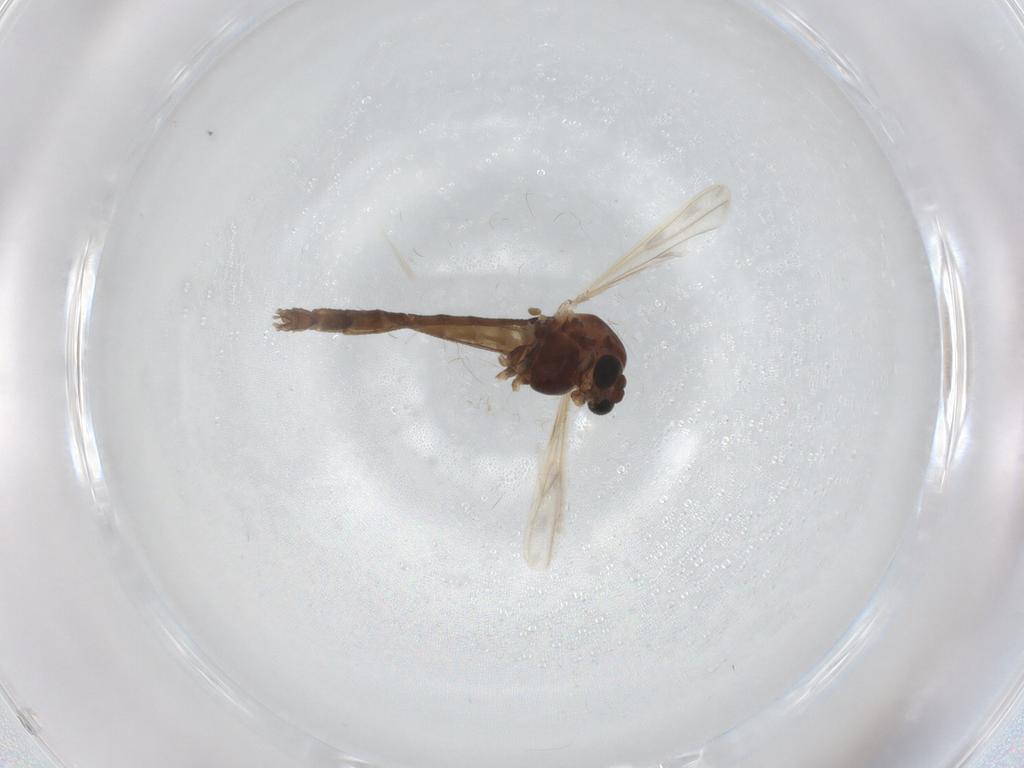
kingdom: Animalia
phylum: Arthropoda
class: Insecta
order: Diptera
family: Chironomidae
